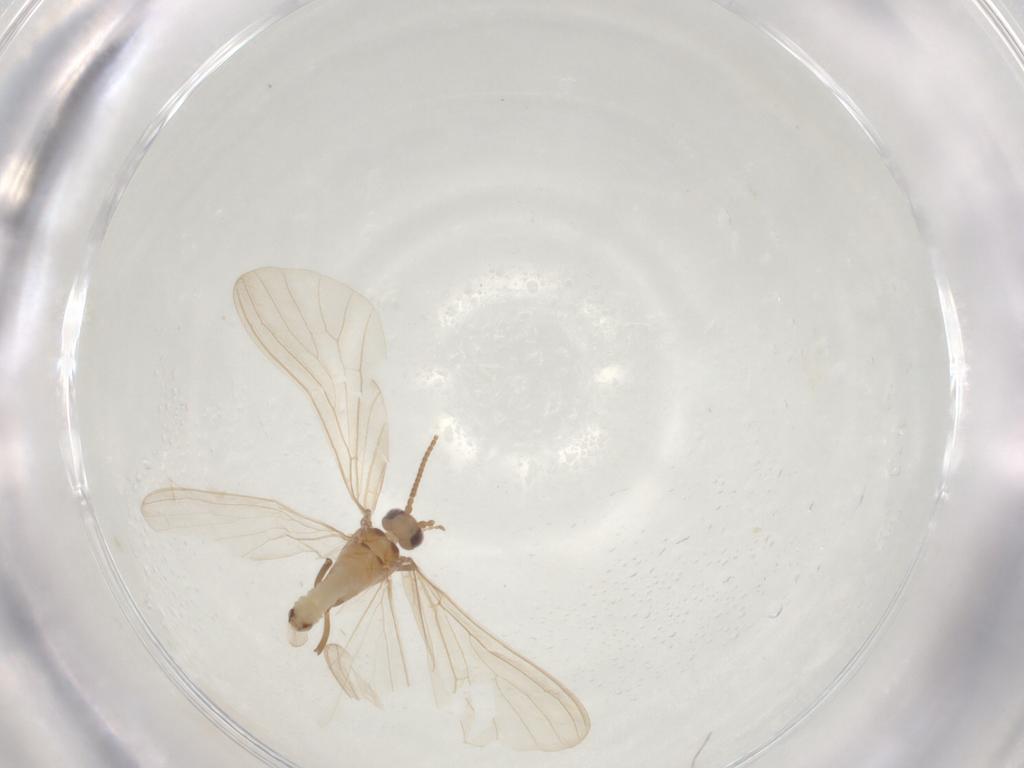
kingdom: Animalia
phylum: Arthropoda
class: Insecta
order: Neuroptera
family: Coniopterygidae
